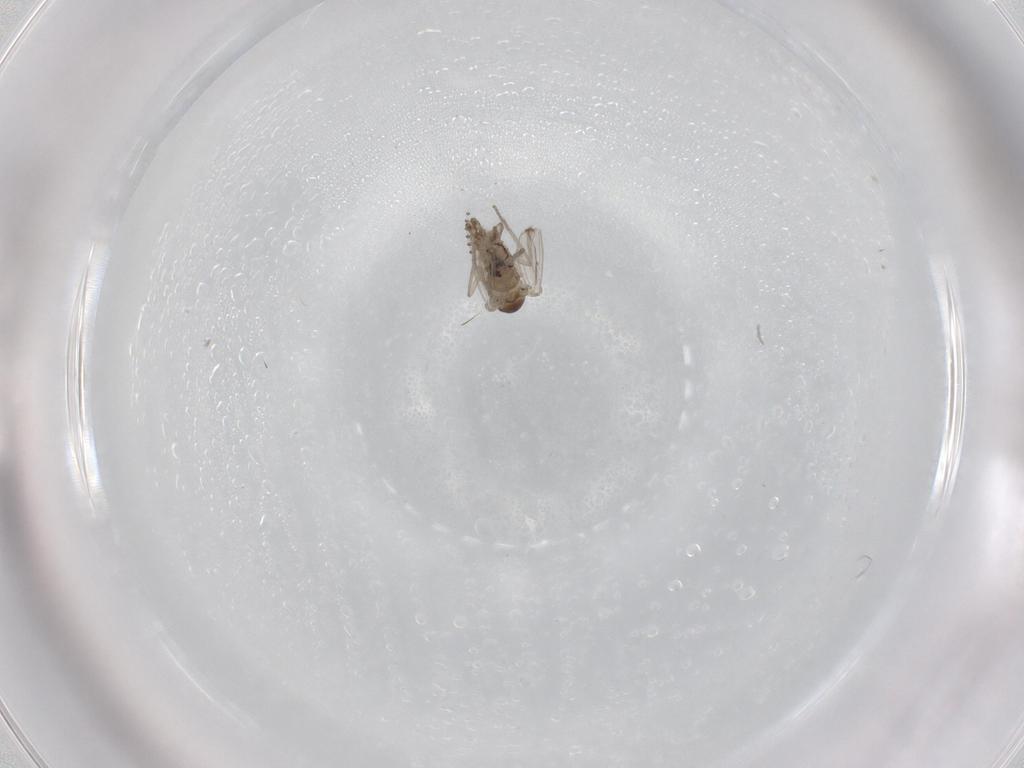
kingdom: Animalia
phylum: Arthropoda
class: Insecta
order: Diptera
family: Psychodidae
